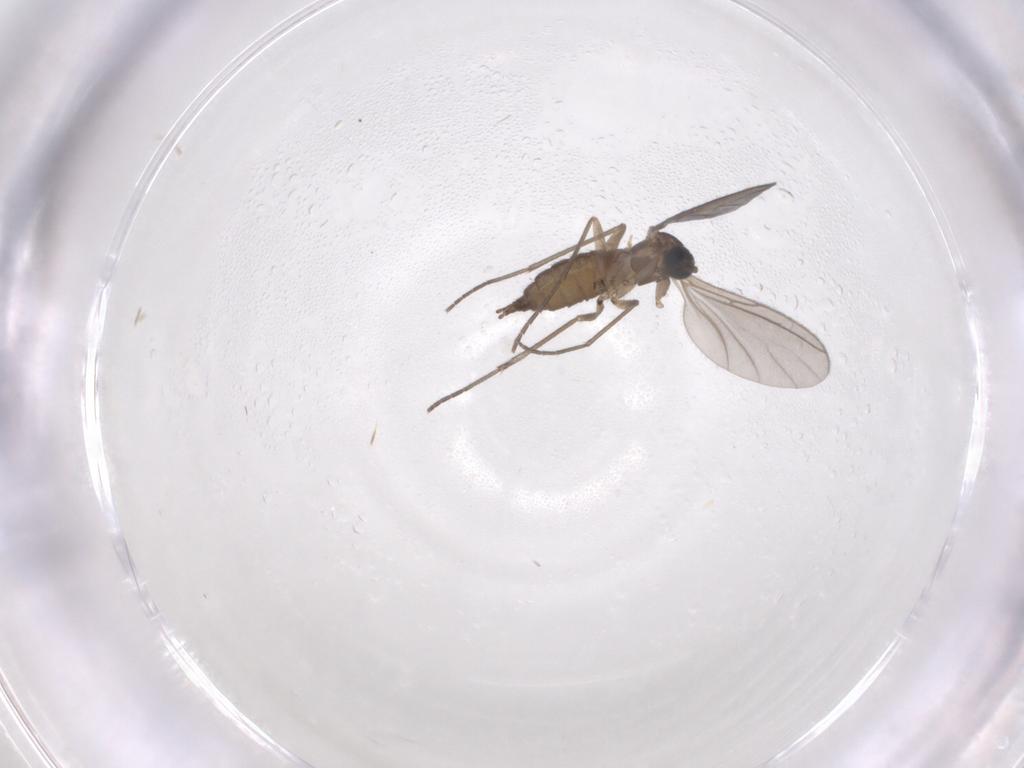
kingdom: Animalia
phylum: Arthropoda
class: Insecta
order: Diptera
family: Sciaridae
